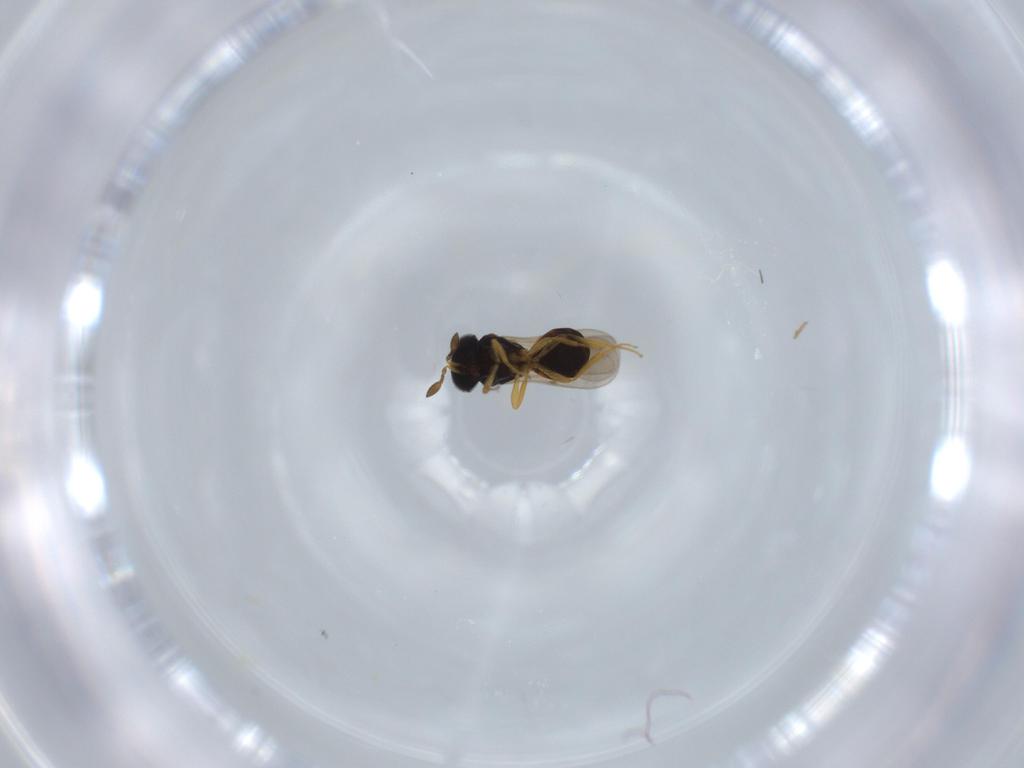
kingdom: Animalia
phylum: Arthropoda
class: Insecta
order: Hymenoptera
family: Scelionidae
